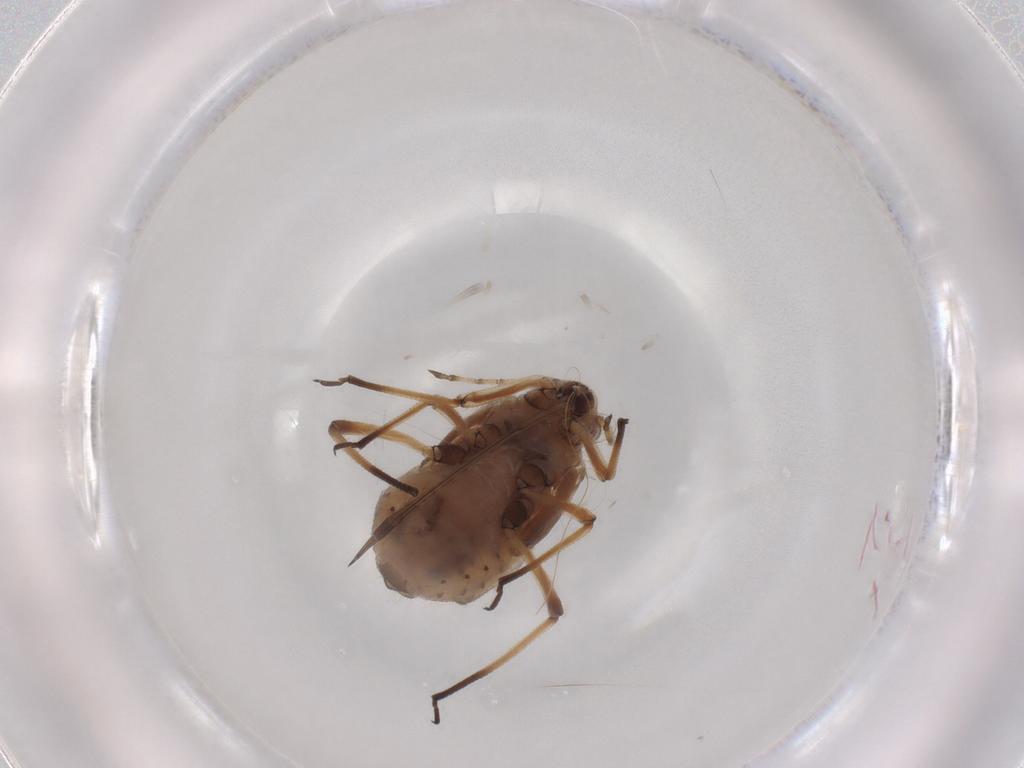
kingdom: Animalia
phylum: Arthropoda
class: Insecta
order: Hemiptera
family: Aphididae
